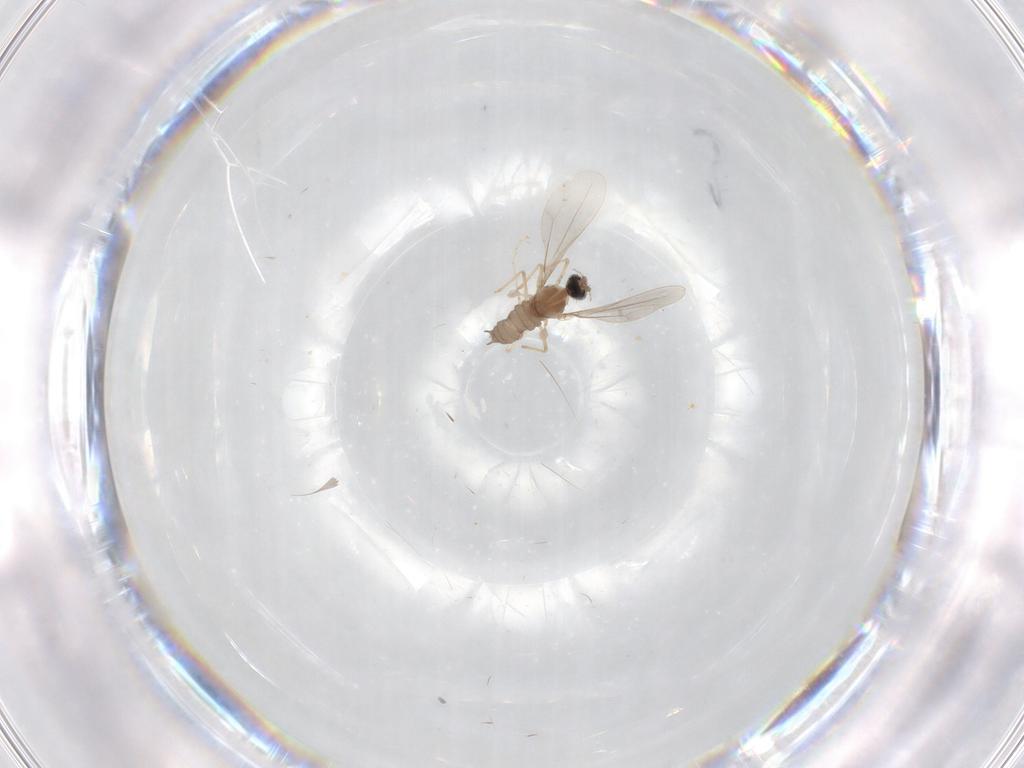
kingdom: Animalia
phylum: Arthropoda
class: Insecta
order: Diptera
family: Cecidomyiidae
